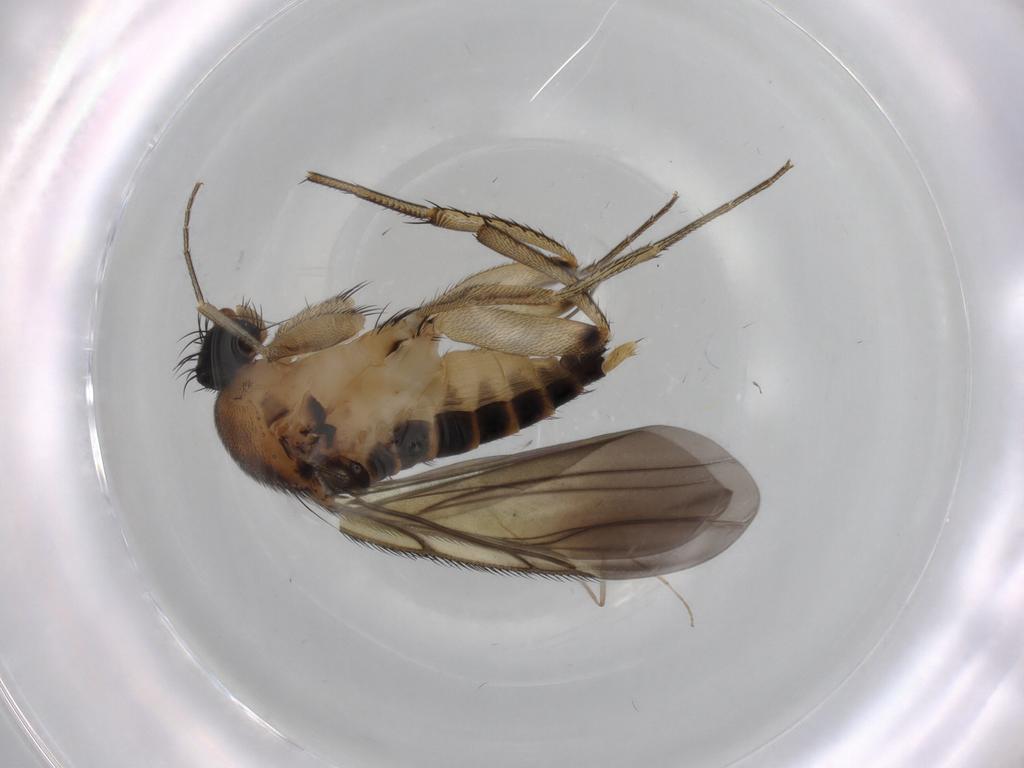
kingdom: Animalia
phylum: Arthropoda
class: Insecta
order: Diptera
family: Phoridae
